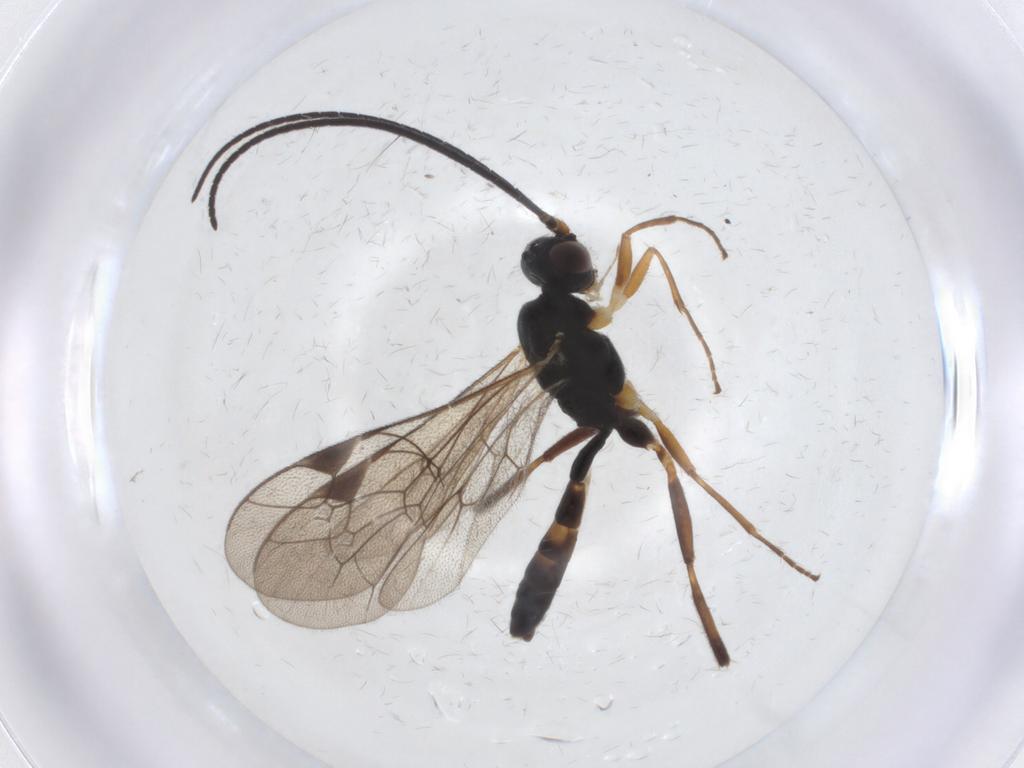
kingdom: Animalia
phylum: Arthropoda
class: Insecta
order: Hymenoptera
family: Ichneumonidae
